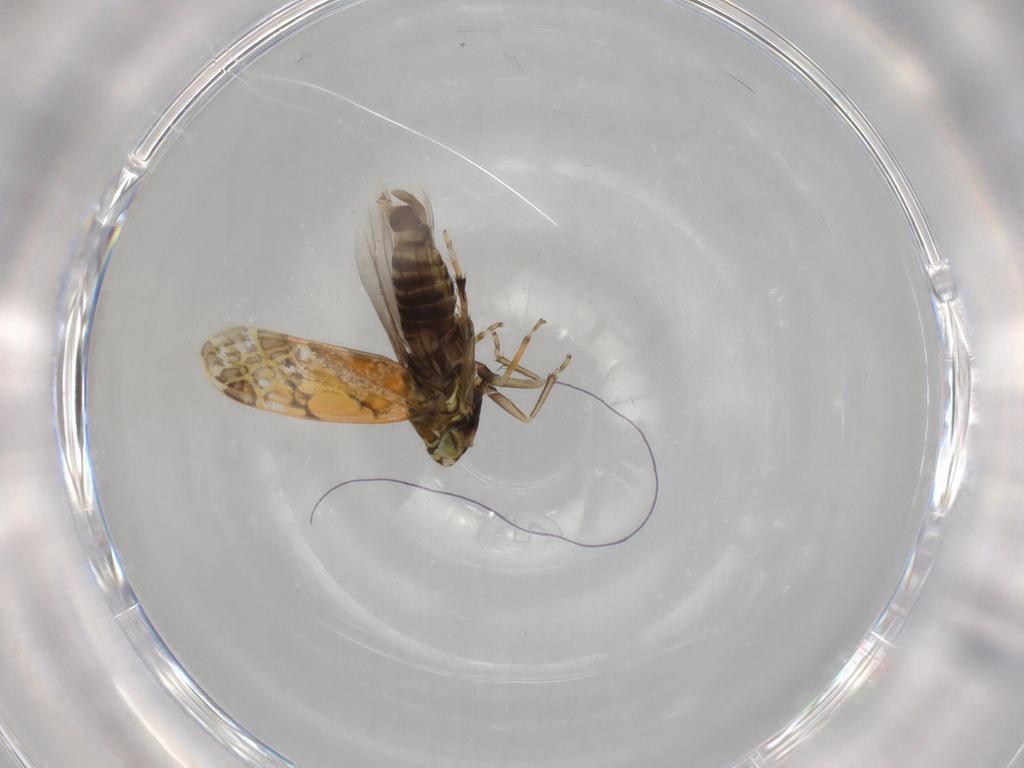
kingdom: Animalia
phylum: Arthropoda
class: Insecta
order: Hemiptera
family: Cicadellidae
